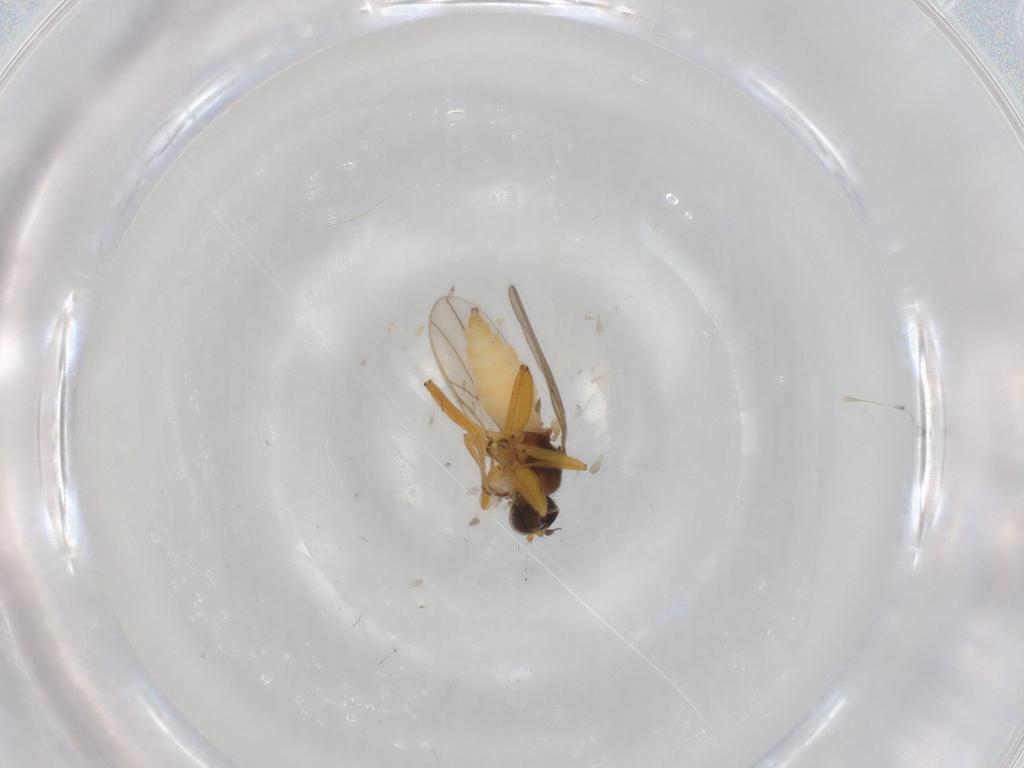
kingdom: Animalia
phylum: Arthropoda
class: Insecta
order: Diptera
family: Hybotidae
